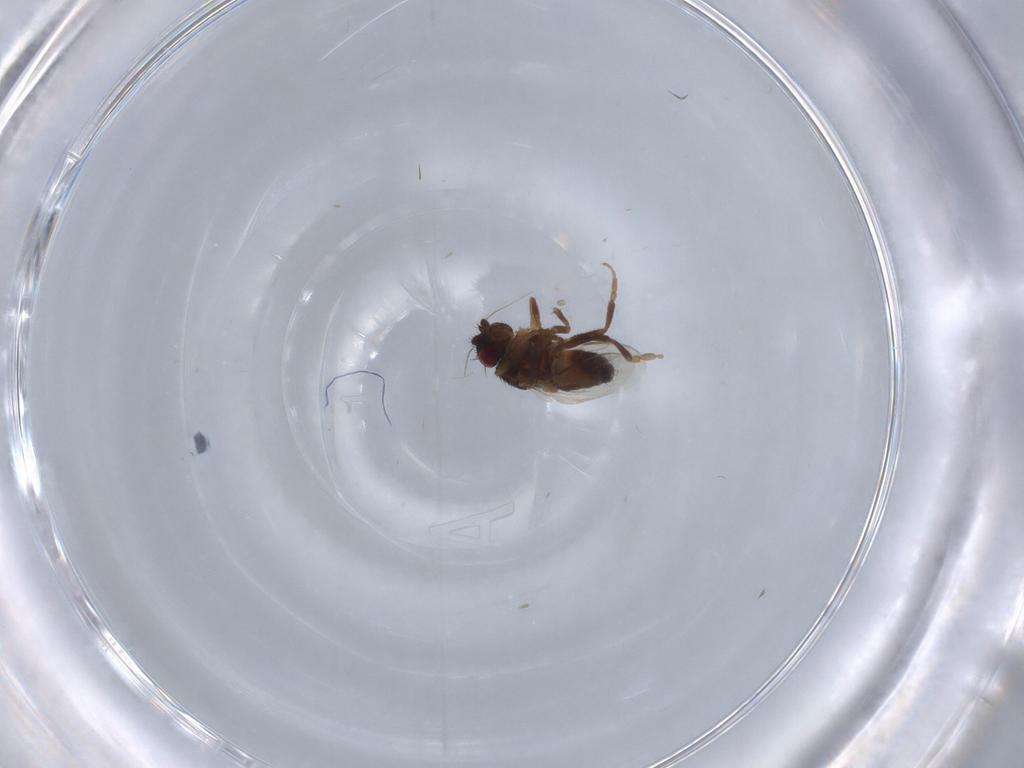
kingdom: Animalia
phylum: Arthropoda
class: Insecta
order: Diptera
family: Sphaeroceridae
